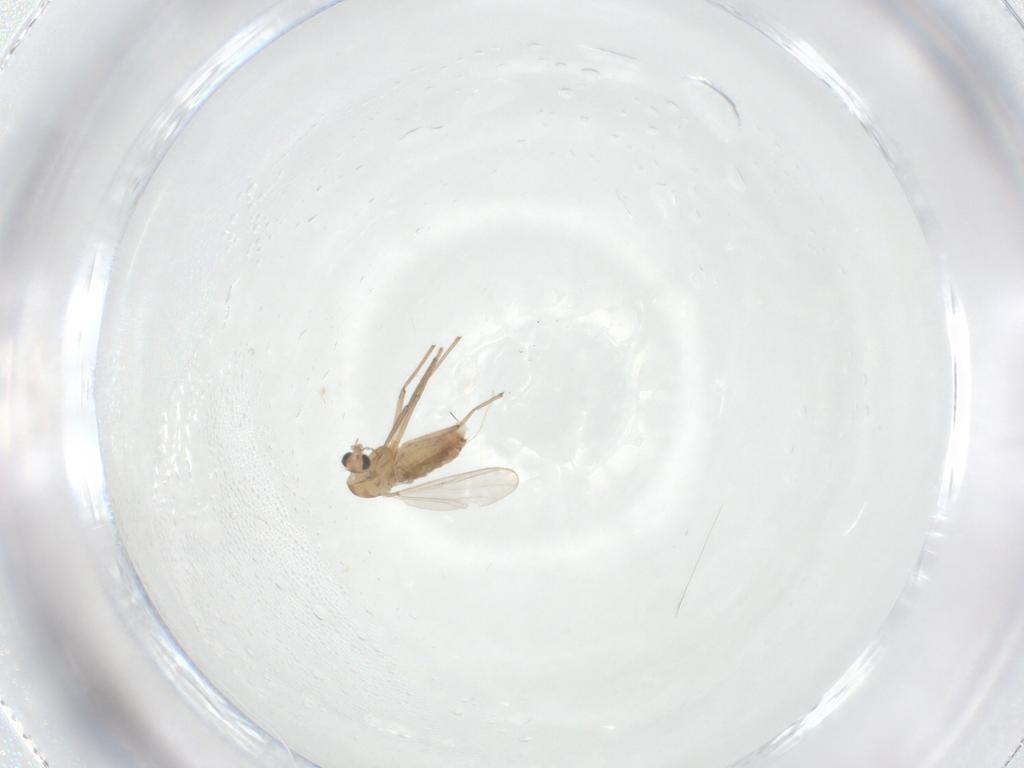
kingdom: Animalia
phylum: Arthropoda
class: Insecta
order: Diptera
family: Chironomidae
